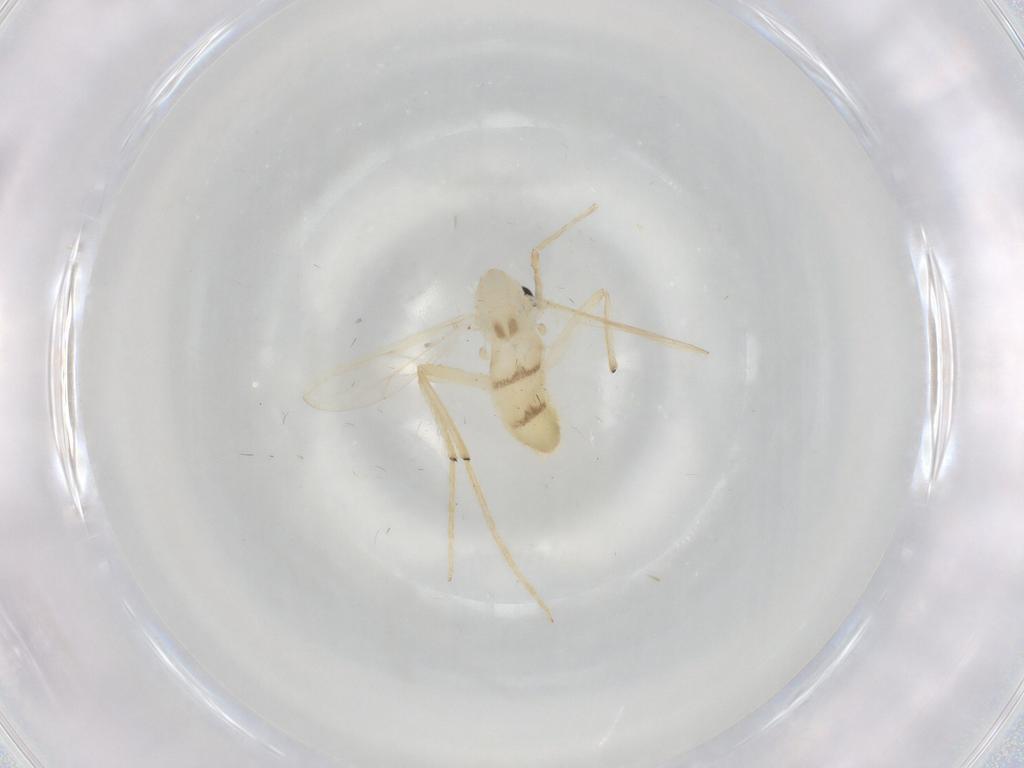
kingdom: Animalia
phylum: Arthropoda
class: Insecta
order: Diptera
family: Chironomidae
